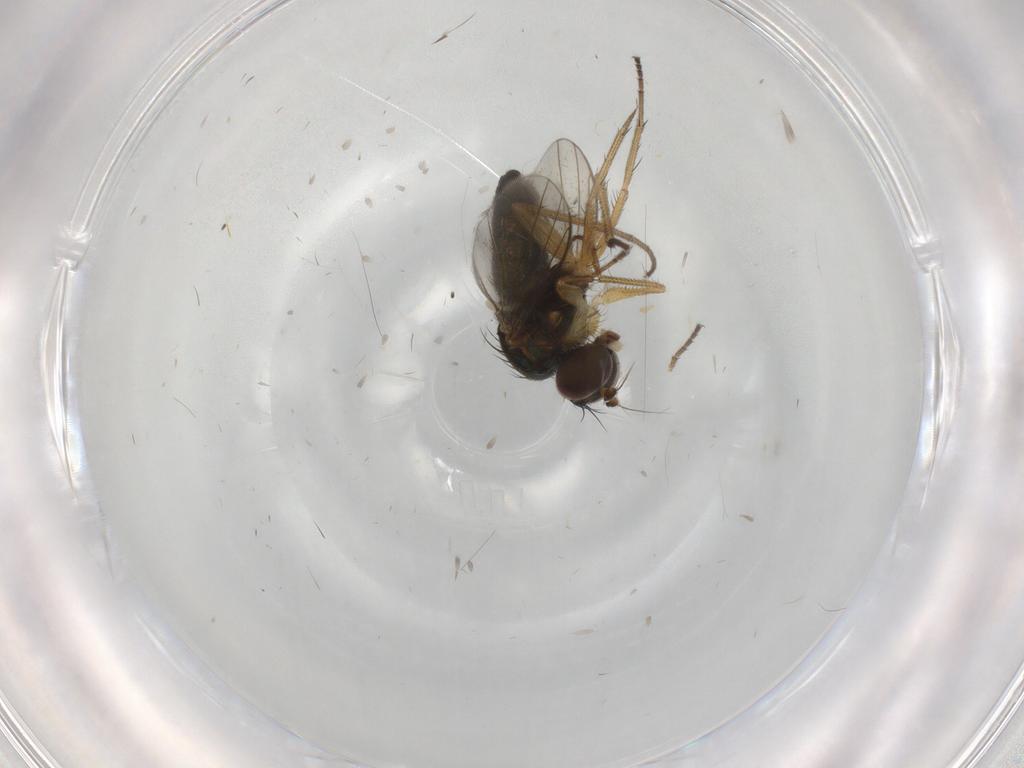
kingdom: Animalia
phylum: Arthropoda
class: Insecta
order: Diptera
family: Dolichopodidae
